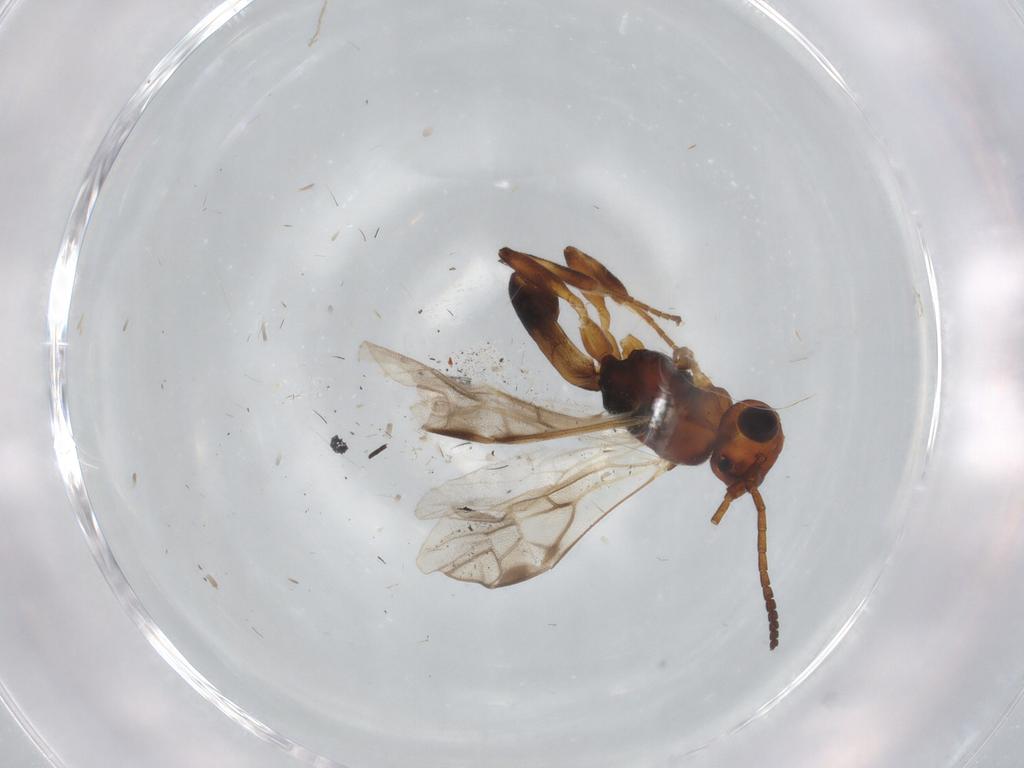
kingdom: Animalia
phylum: Arthropoda
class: Insecta
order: Hymenoptera
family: Braconidae
